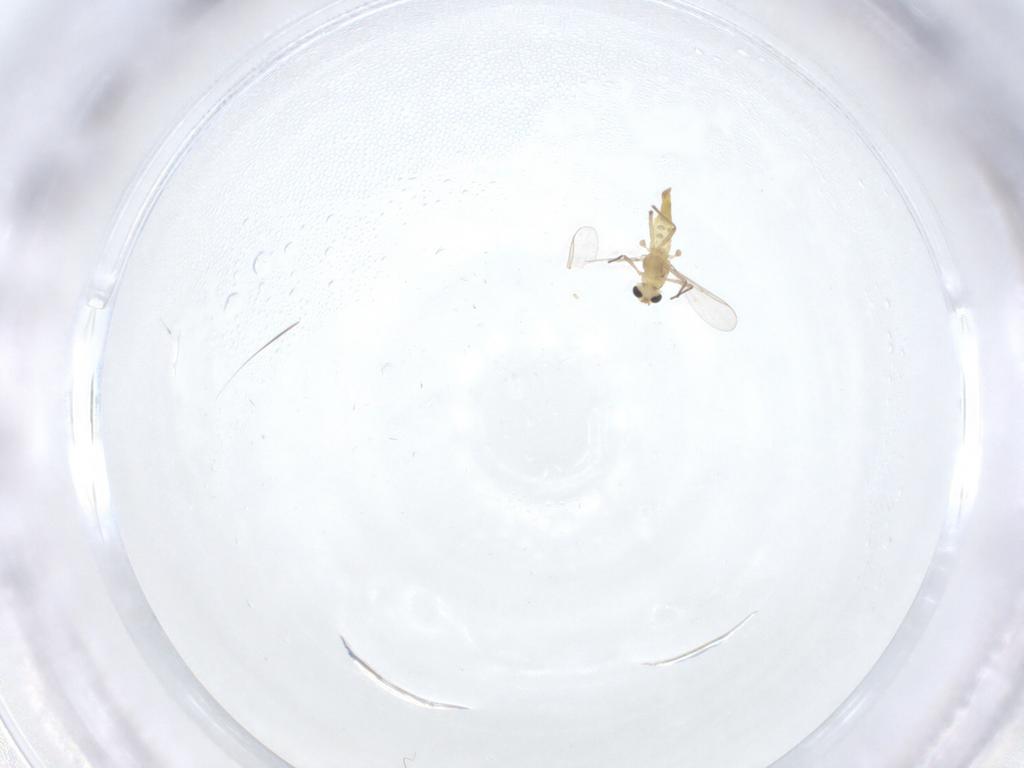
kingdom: Animalia
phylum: Arthropoda
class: Insecta
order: Diptera
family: Chironomidae
